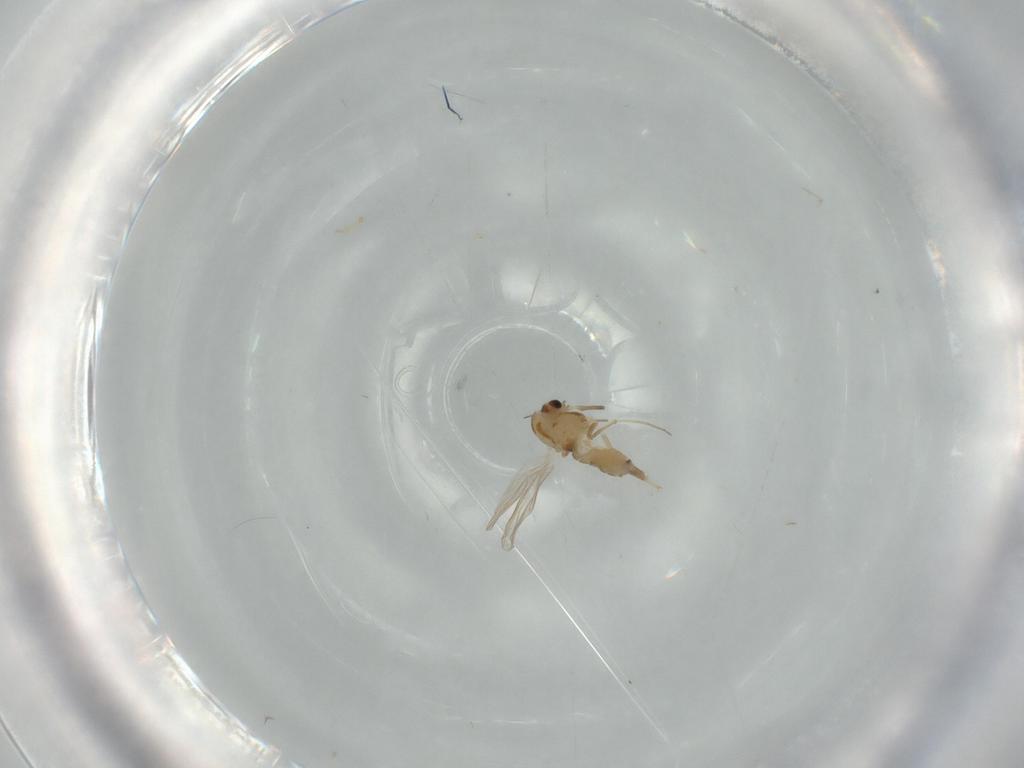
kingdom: Animalia
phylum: Arthropoda
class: Insecta
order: Diptera
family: Chironomidae
